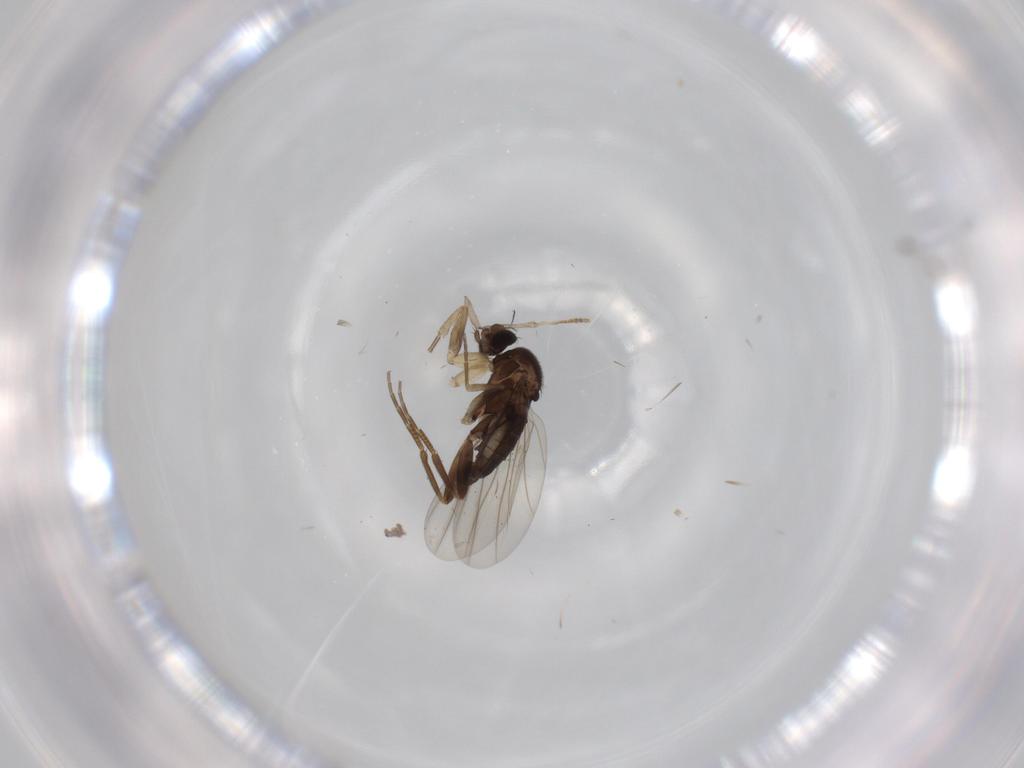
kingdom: Animalia
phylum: Arthropoda
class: Insecta
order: Diptera
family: Phoridae
